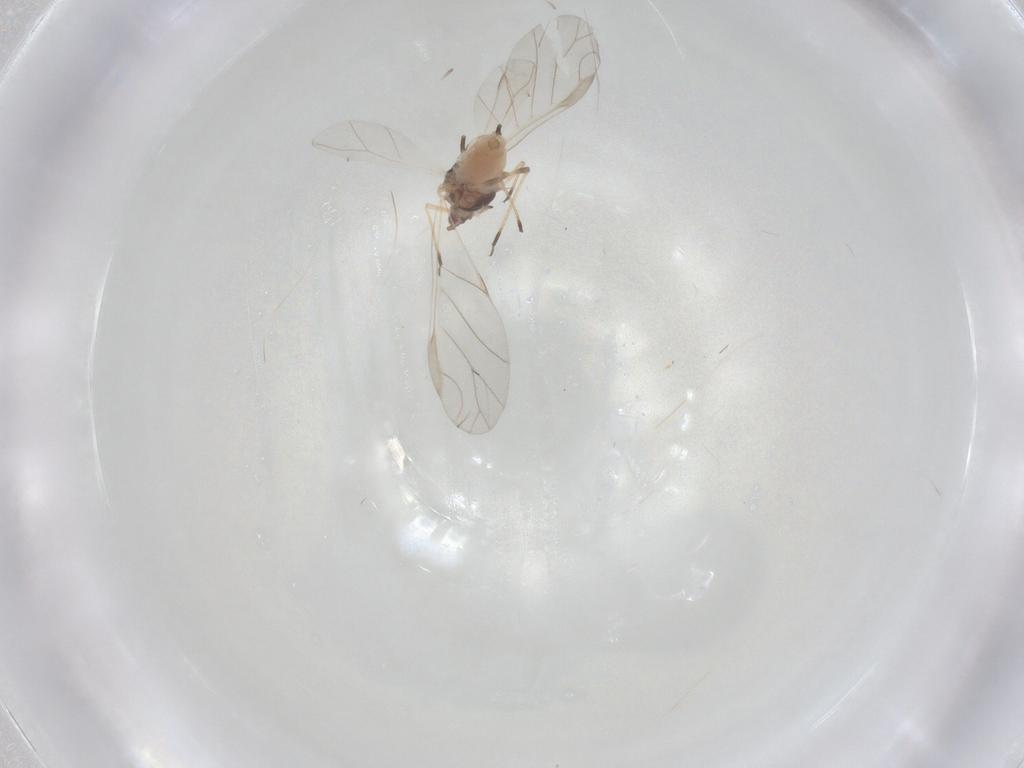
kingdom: Animalia
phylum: Arthropoda
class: Insecta
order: Hemiptera
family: Aphididae
